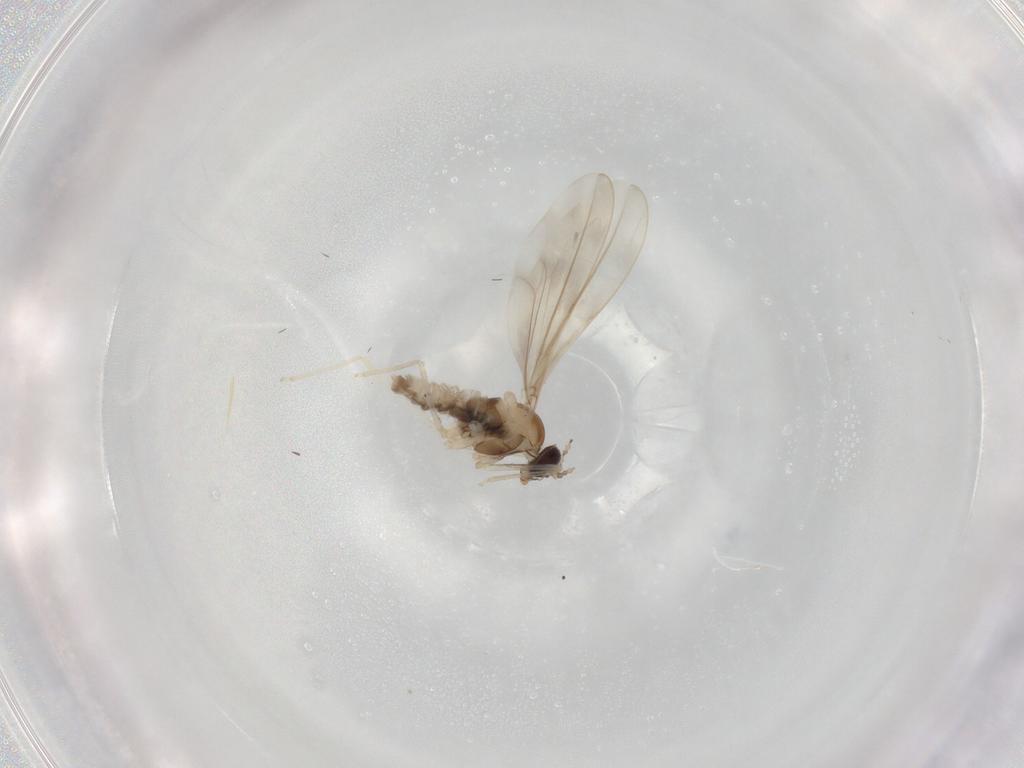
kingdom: Animalia
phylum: Arthropoda
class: Insecta
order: Diptera
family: Cecidomyiidae
